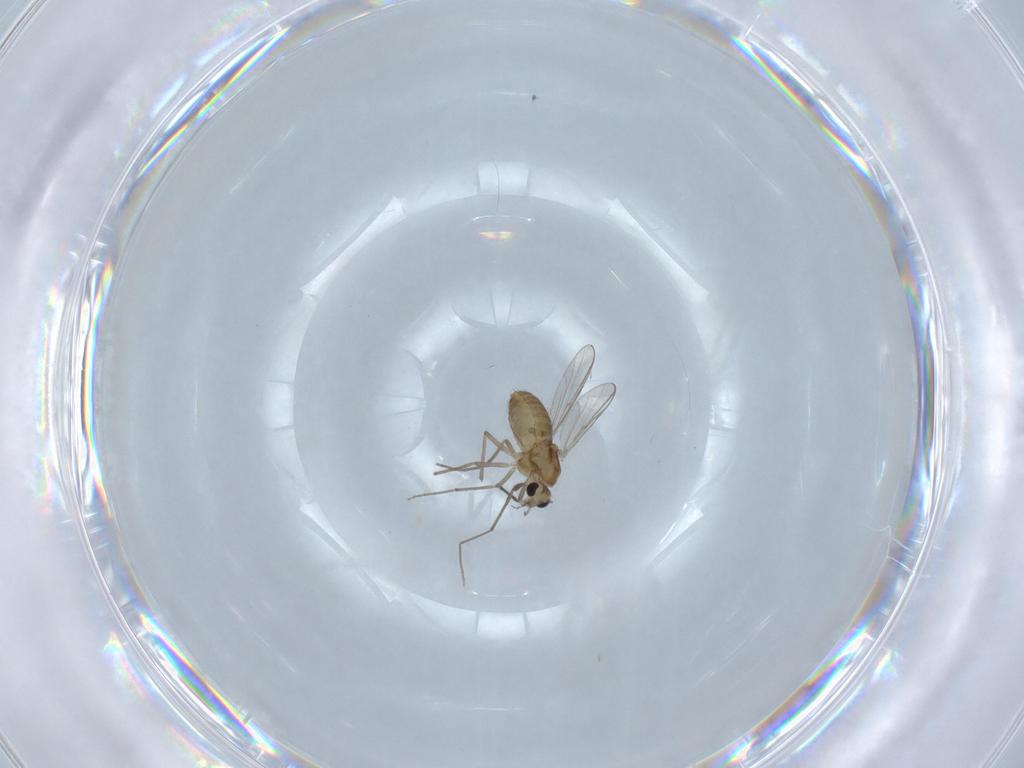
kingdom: Animalia
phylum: Arthropoda
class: Insecta
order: Diptera
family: Chironomidae
